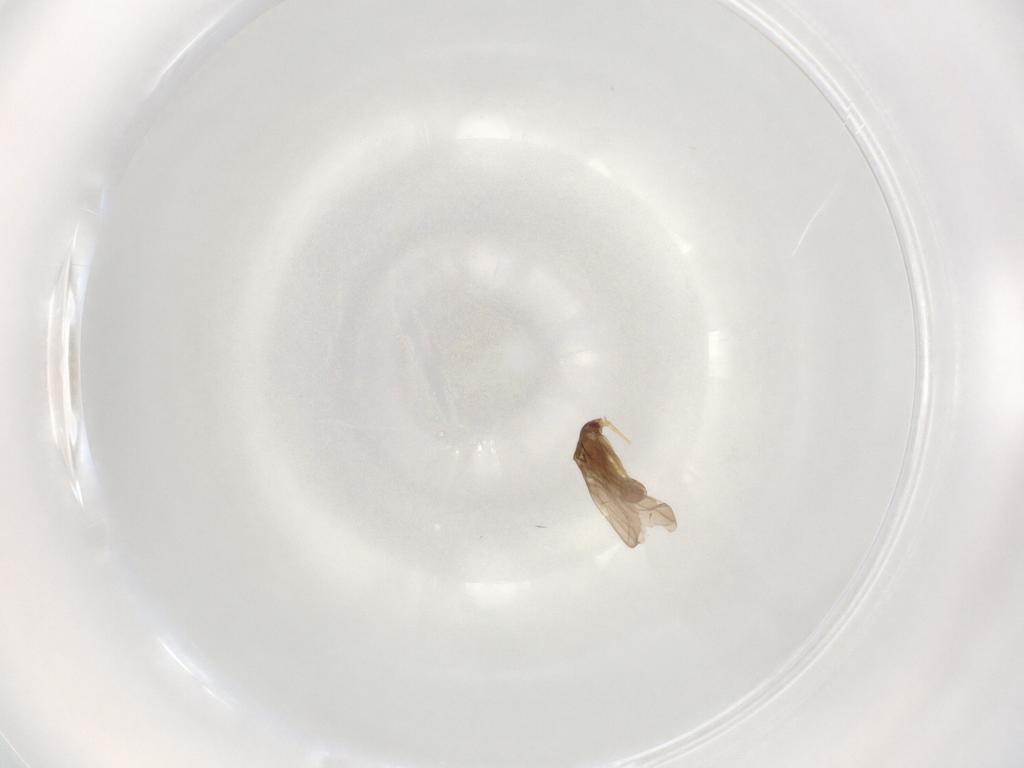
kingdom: Animalia
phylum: Arthropoda
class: Insecta
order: Hemiptera
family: Ceratocombidae
